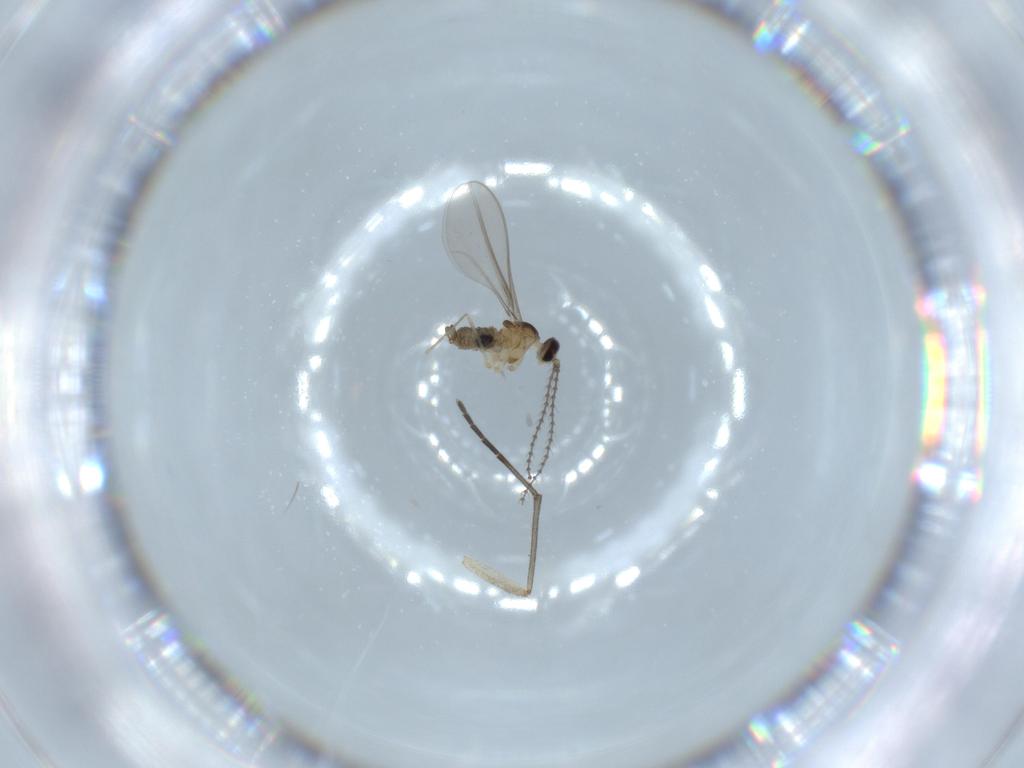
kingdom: Animalia
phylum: Arthropoda
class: Insecta
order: Diptera
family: Cecidomyiidae
